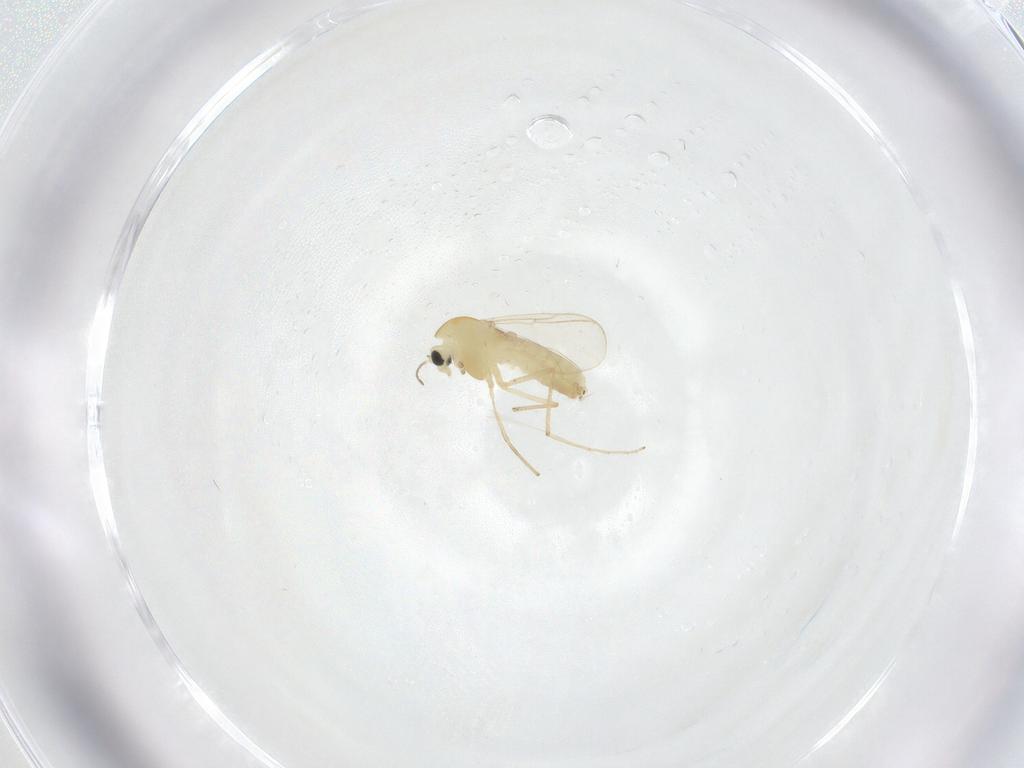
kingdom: Animalia
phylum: Arthropoda
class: Insecta
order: Diptera
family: Chironomidae
